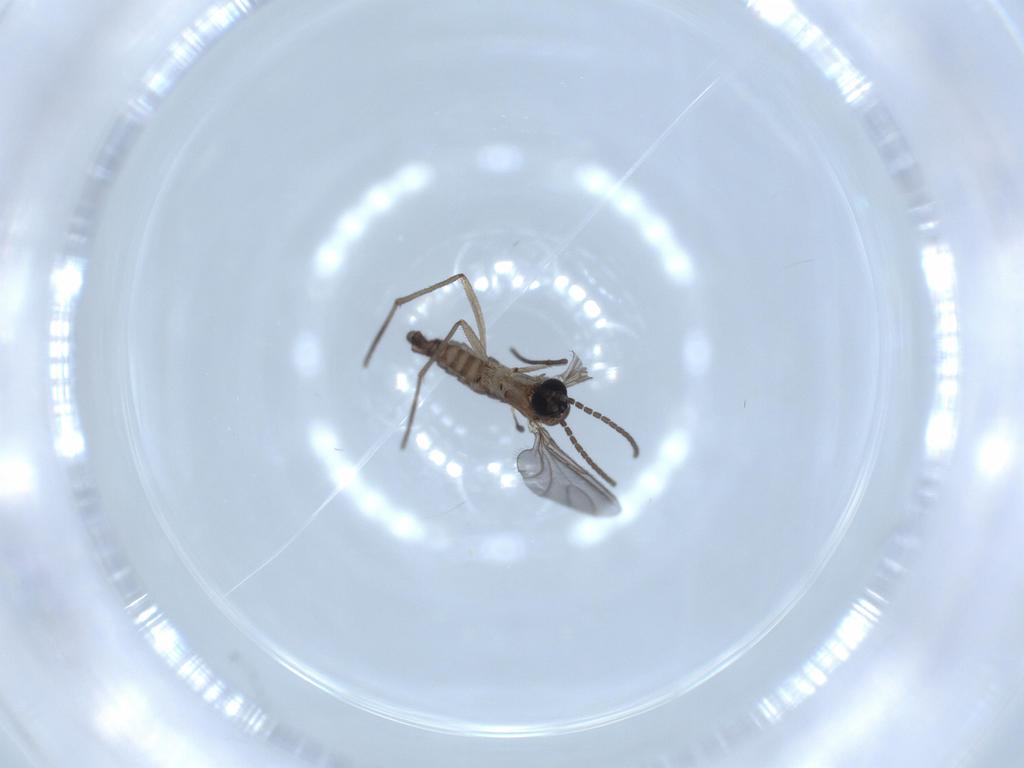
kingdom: Animalia
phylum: Arthropoda
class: Insecta
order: Diptera
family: Sciaridae
